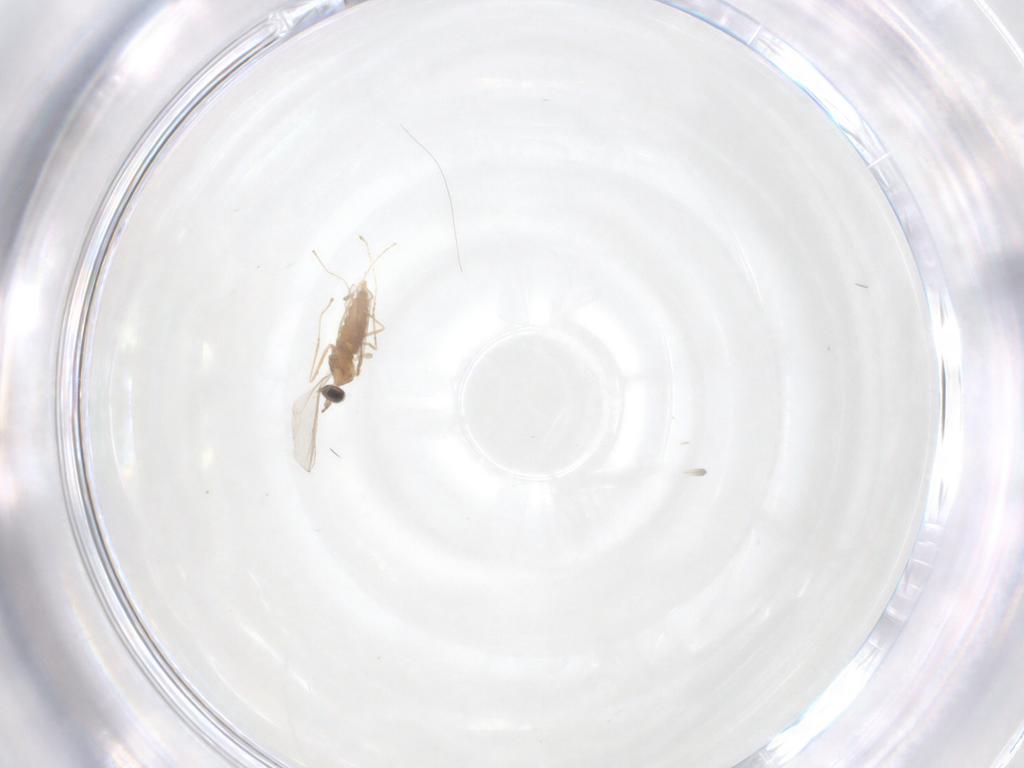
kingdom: Animalia
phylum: Arthropoda
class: Insecta
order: Diptera
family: Cecidomyiidae
